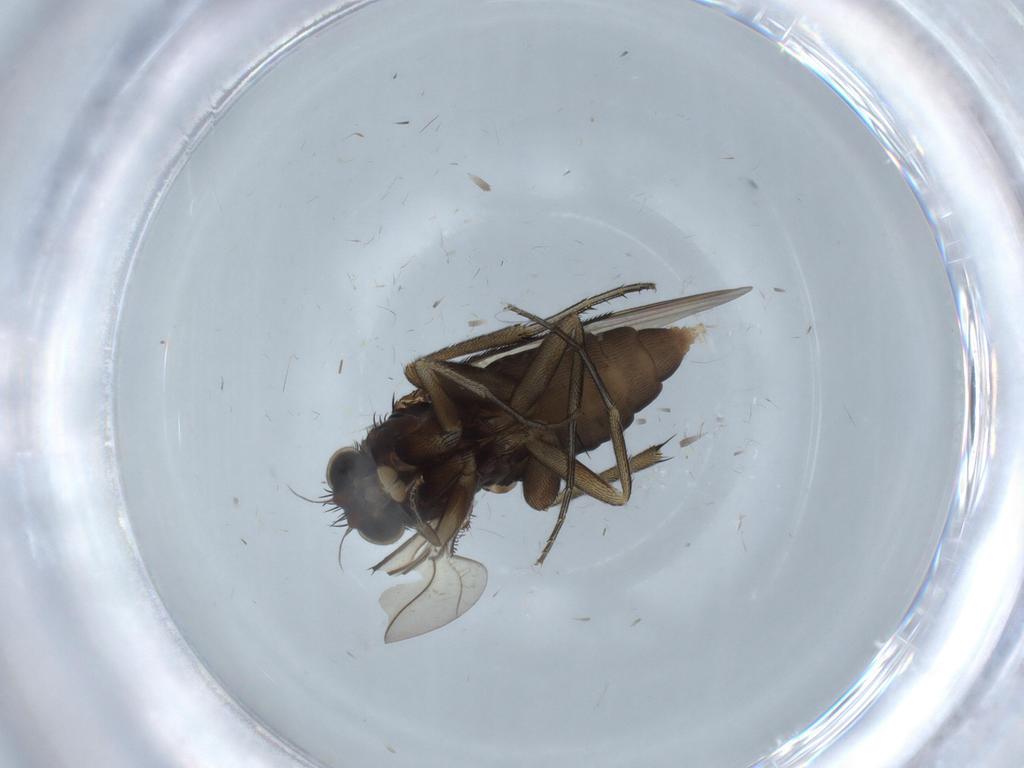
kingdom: Animalia
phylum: Arthropoda
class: Insecta
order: Diptera
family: Phoridae
